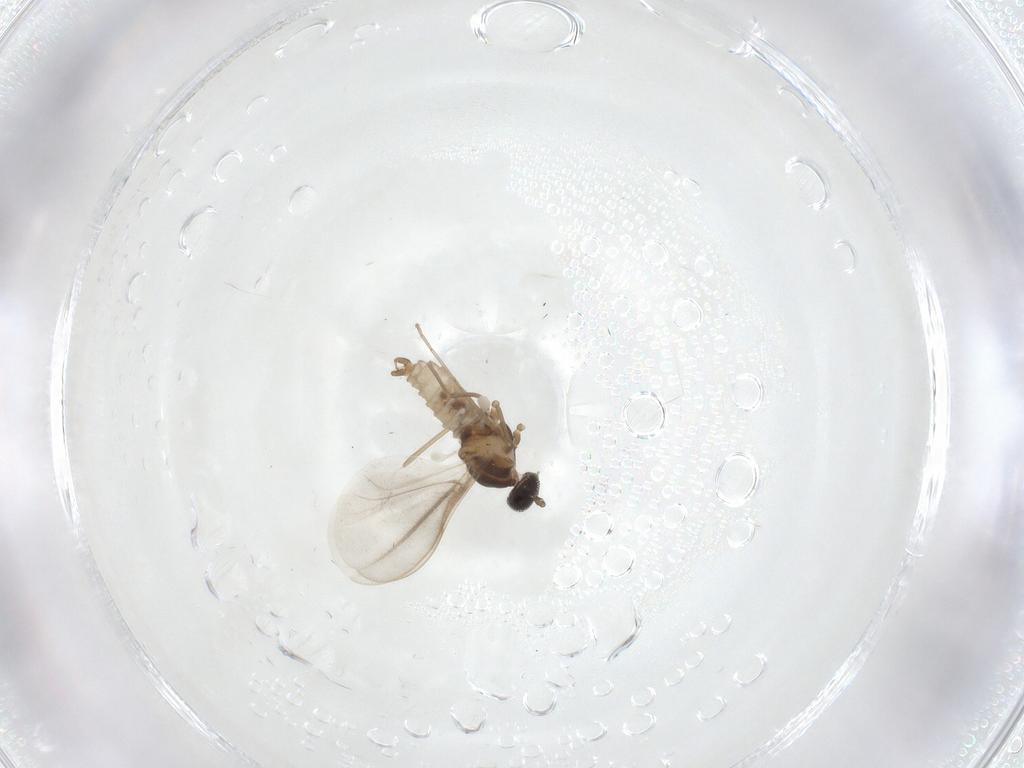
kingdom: Animalia
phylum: Arthropoda
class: Insecta
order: Diptera
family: Cecidomyiidae
